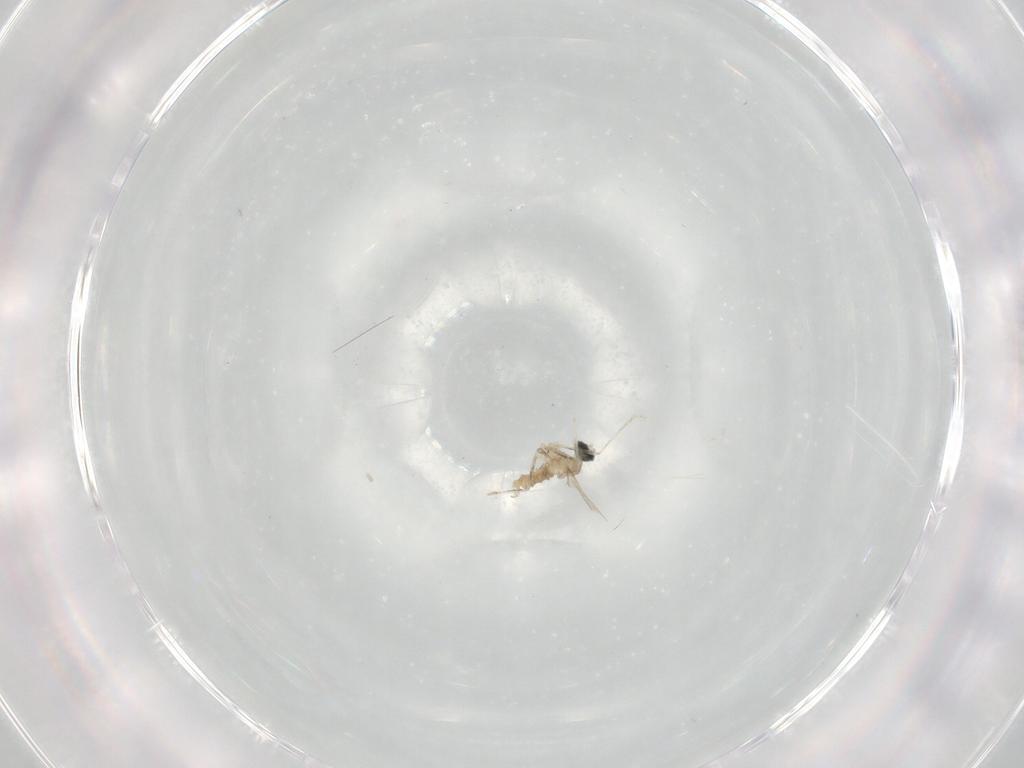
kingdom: Animalia
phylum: Arthropoda
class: Insecta
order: Diptera
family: Cecidomyiidae
